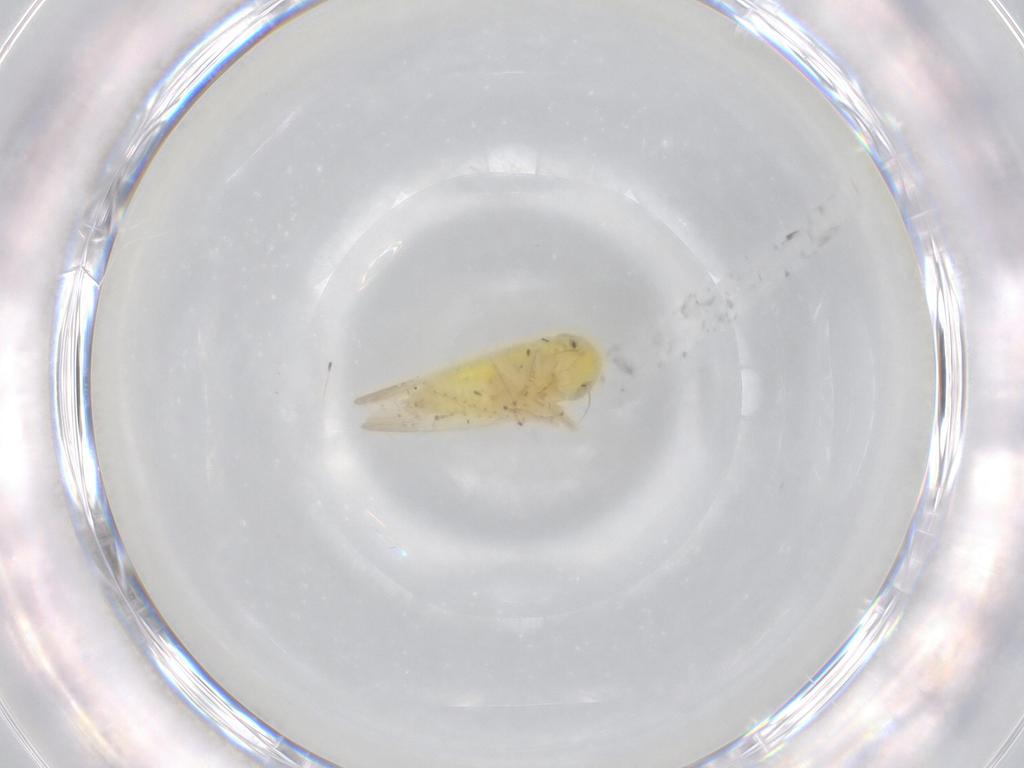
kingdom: Animalia
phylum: Arthropoda
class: Insecta
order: Hemiptera
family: Cicadellidae
